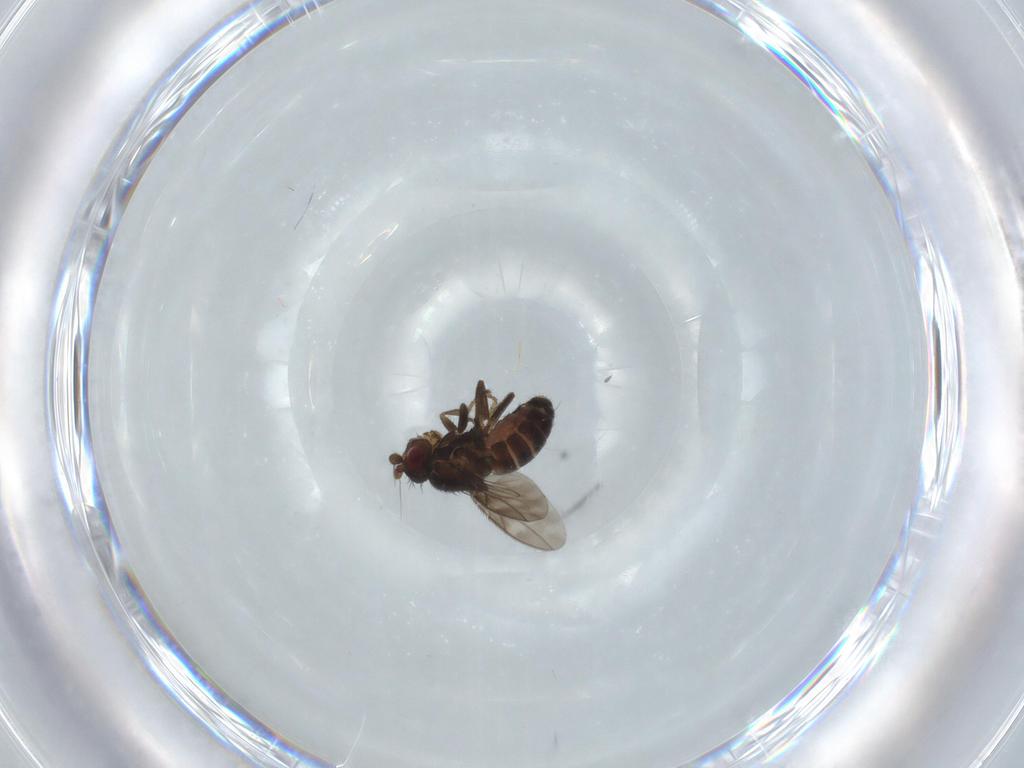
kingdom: Animalia
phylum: Arthropoda
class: Insecta
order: Diptera
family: Sphaeroceridae
